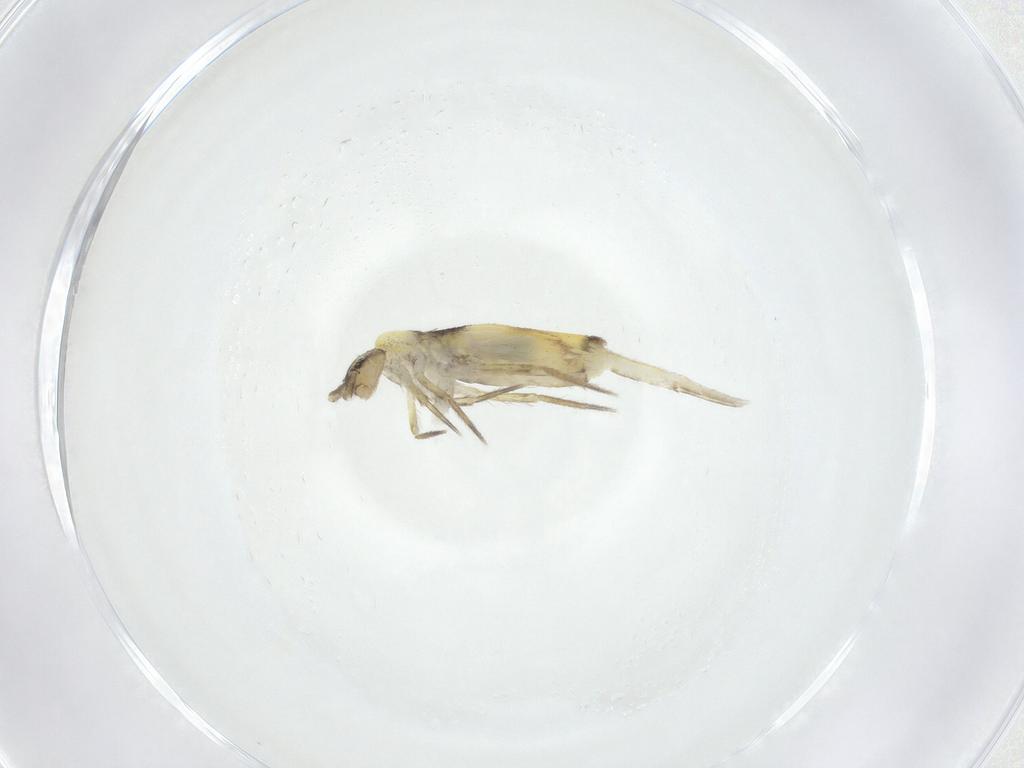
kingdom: Animalia
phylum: Arthropoda
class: Collembola
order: Entomobryomorpha
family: Entomobryidae
